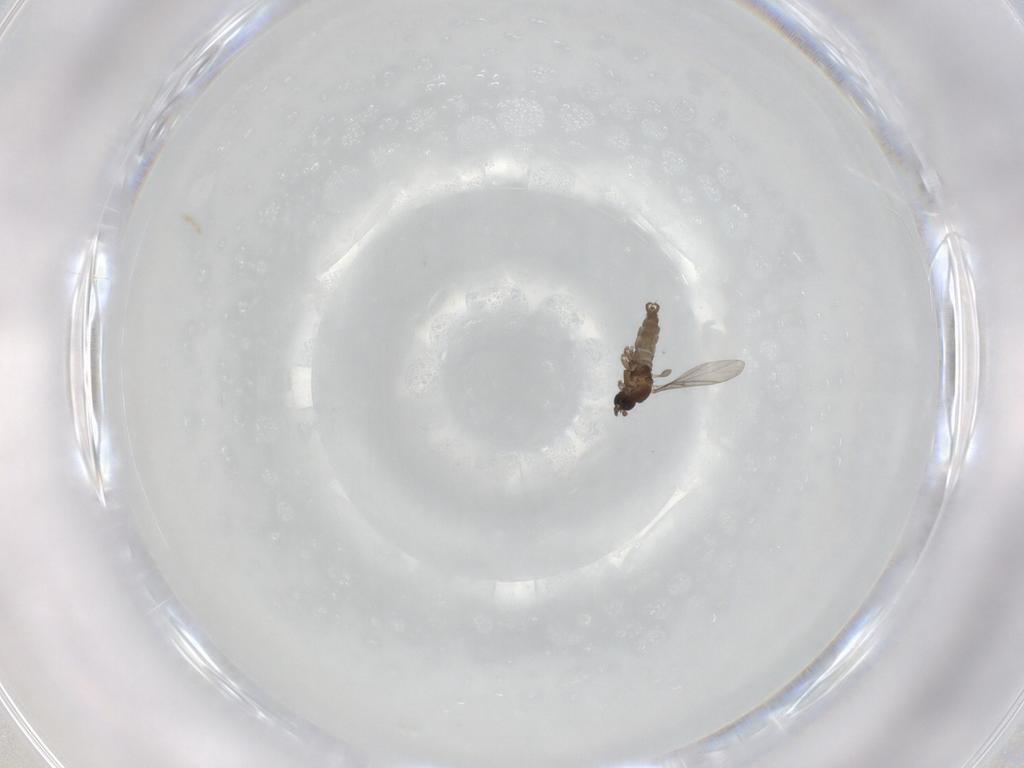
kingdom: Animalia
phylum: Arthropoda
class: Insecta
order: Diptera
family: Sciaridae
